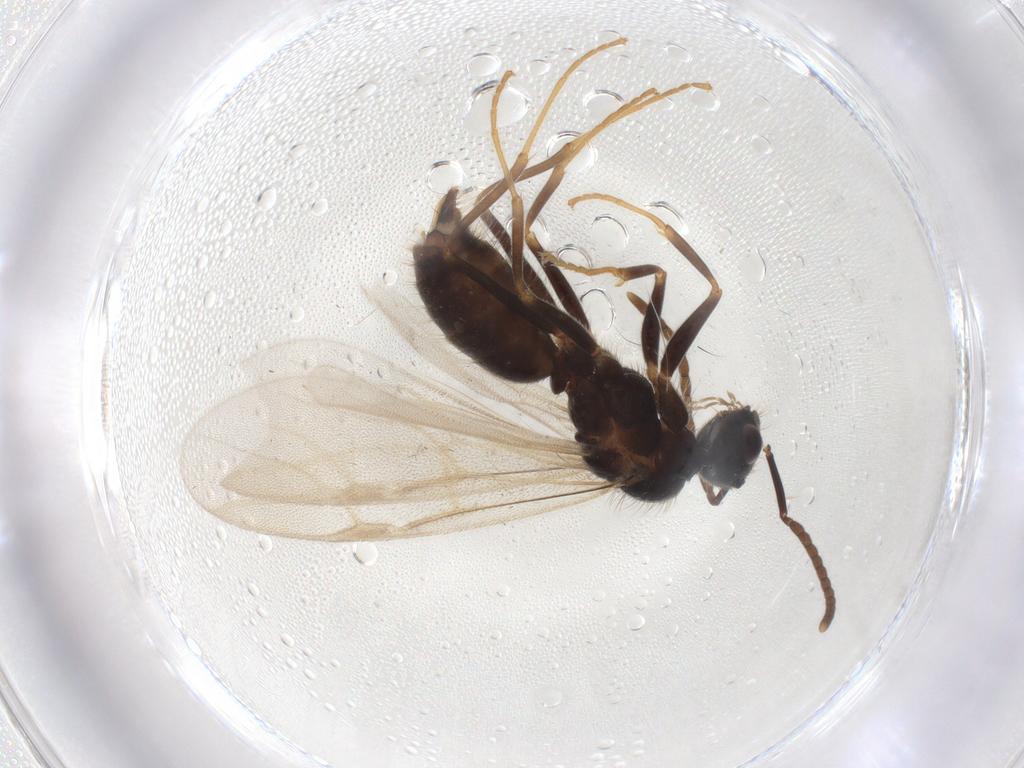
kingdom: Animalia
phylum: Arthropoda
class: Insecta
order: Hymenoptera
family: Formicidae
